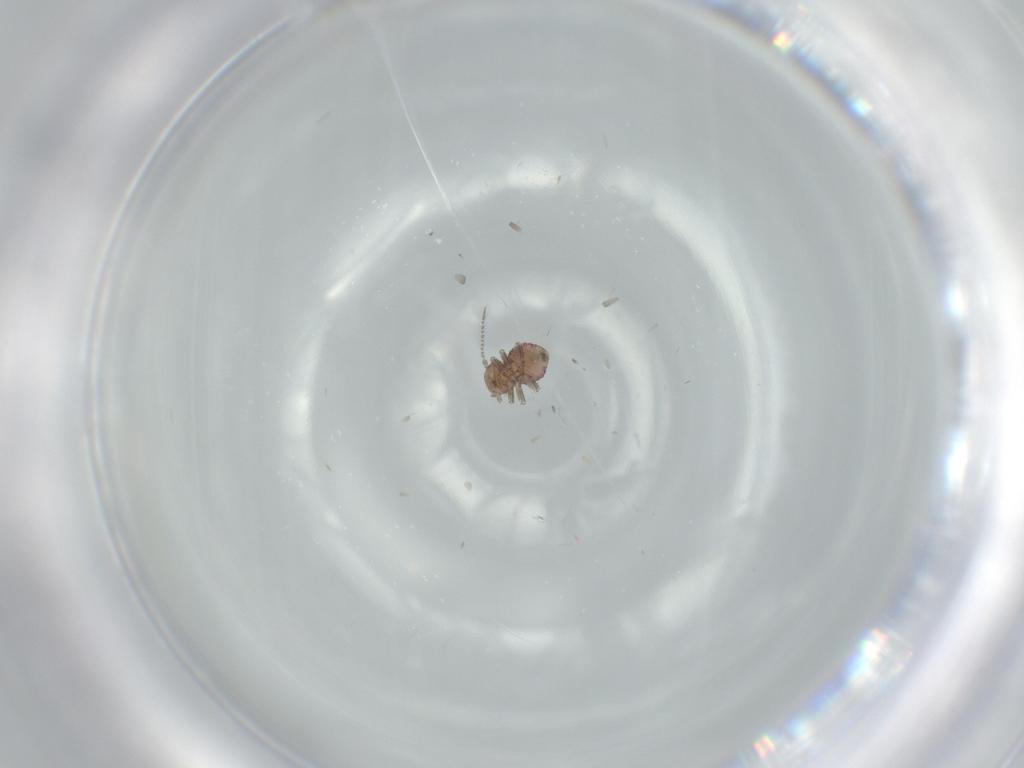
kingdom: Animalia
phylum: Arthropoda
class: Insecta
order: Psocodea
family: Psocidae
